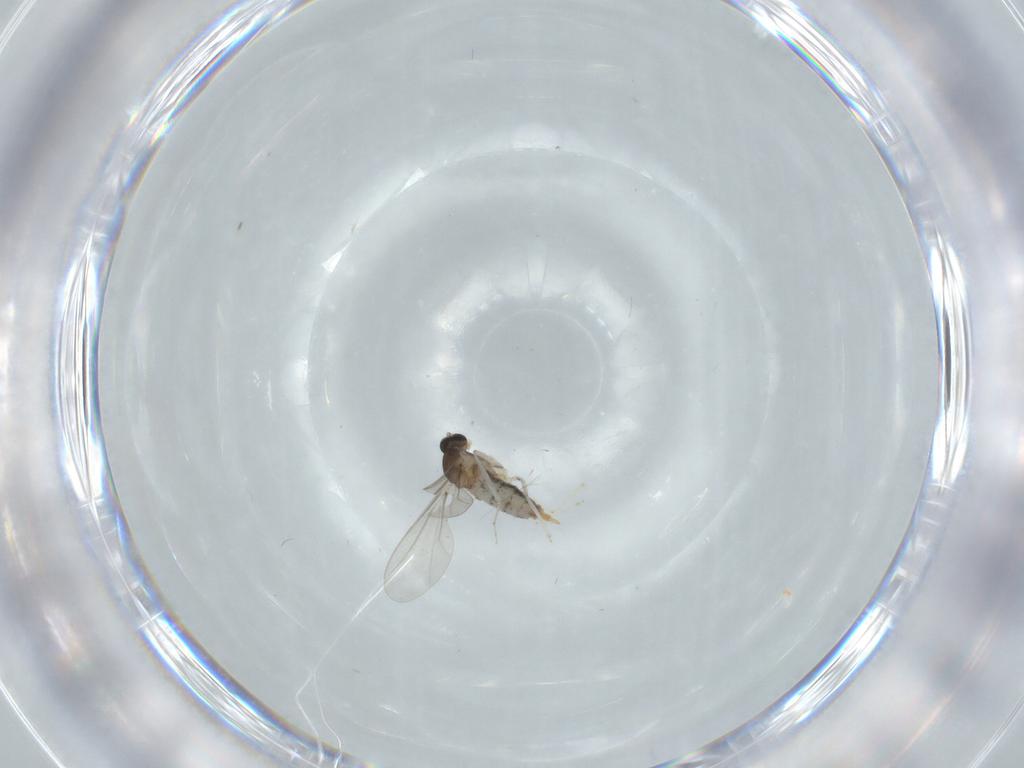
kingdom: Animalia
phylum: Arthropoda
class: Insecta
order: Diptera
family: Cecidomyiidae
